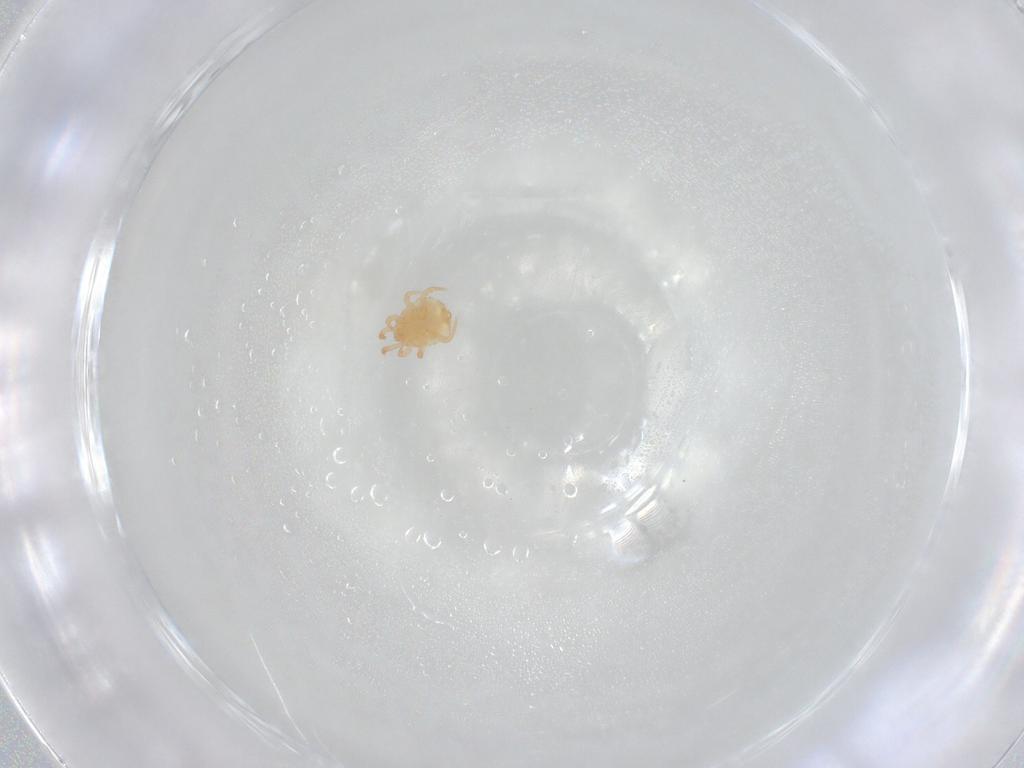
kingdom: Animalia
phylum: Arthropoda
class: Arachnida
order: Mesostigmata
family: Sejidae
